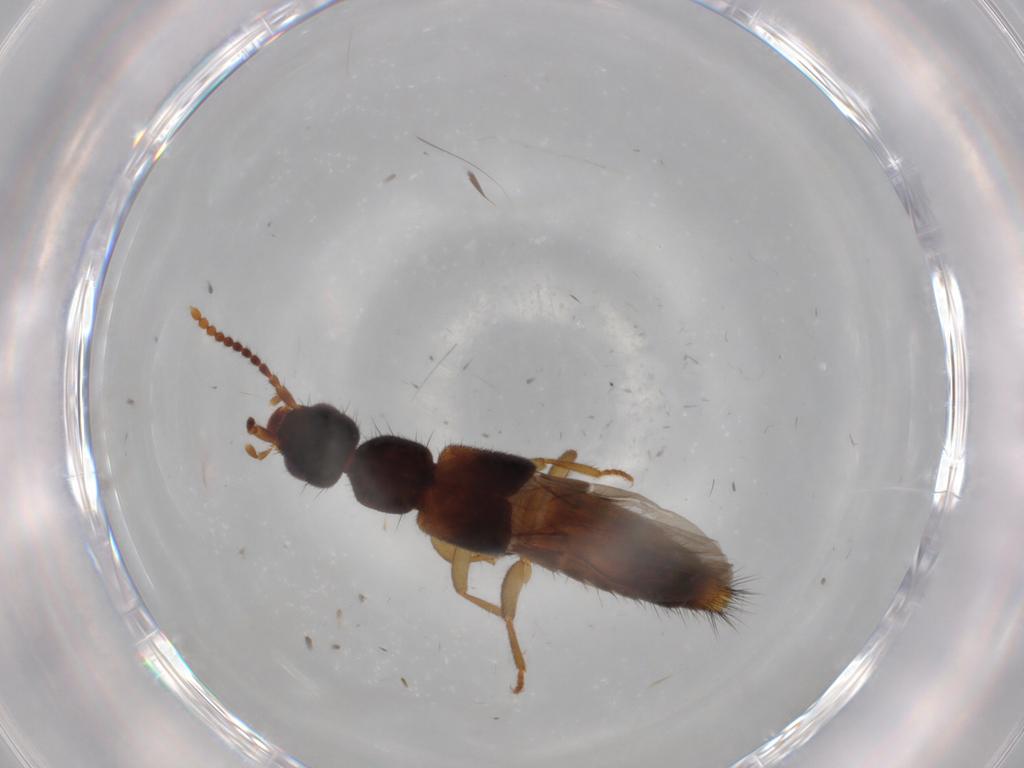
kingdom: Animalia
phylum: Arthropoda
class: Insecta
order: Coleoptera
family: Staphylinidae
